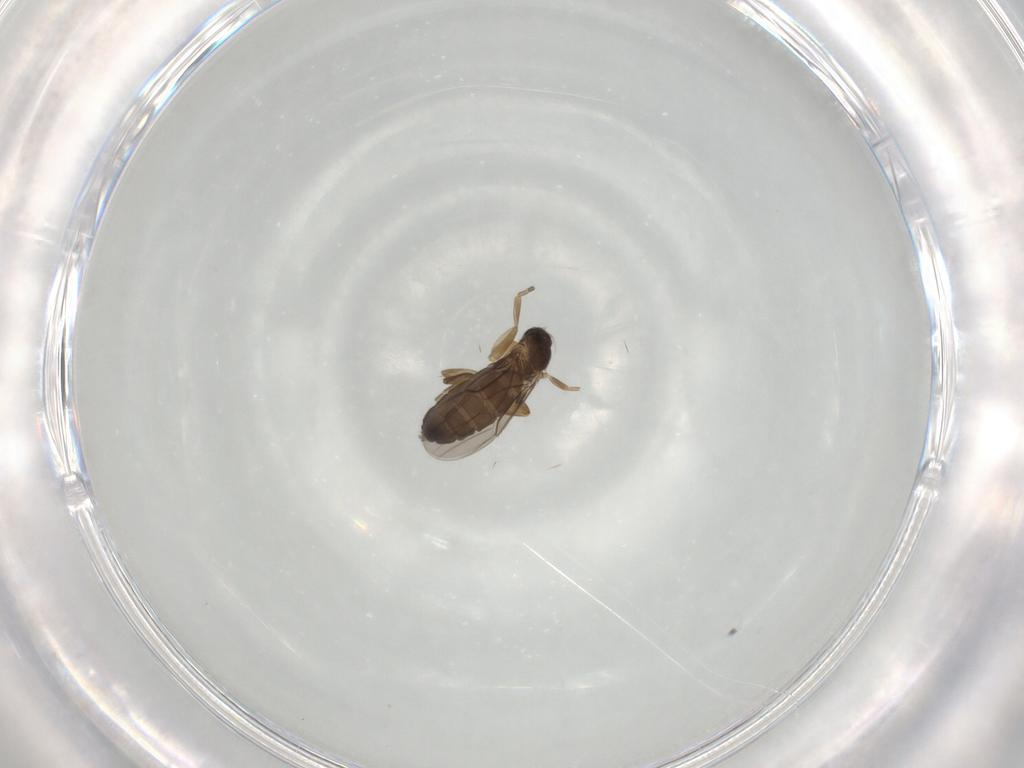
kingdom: Animalia
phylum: Arthropoda
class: Insecta
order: Diptera
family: Phoridae
